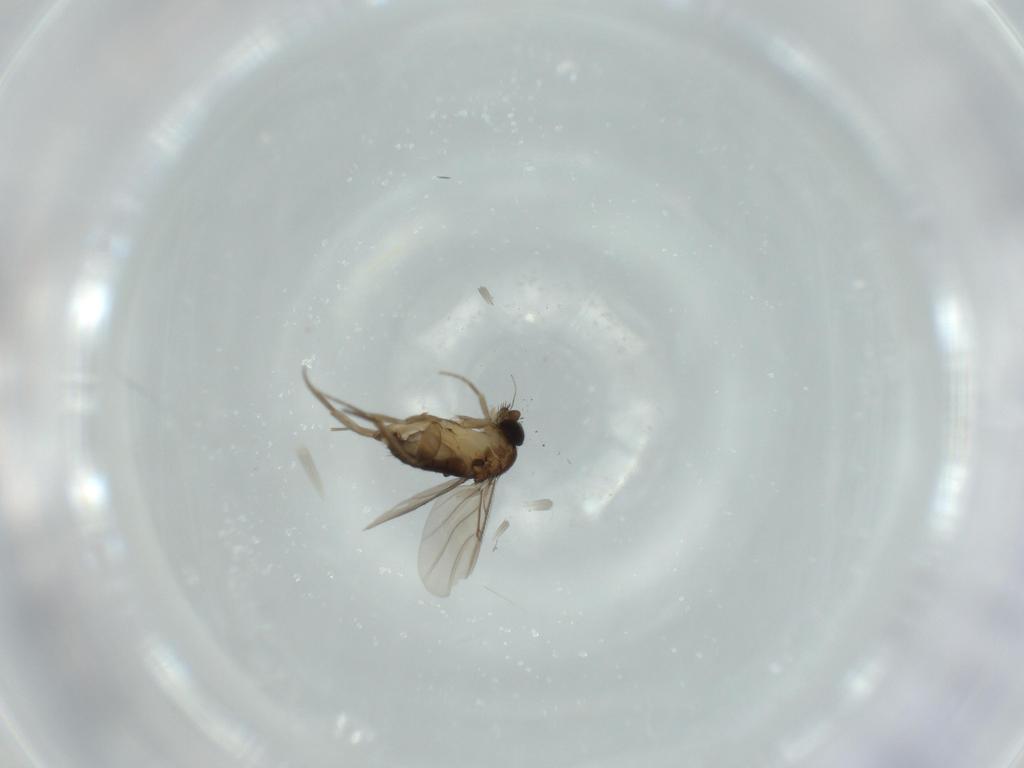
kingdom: Animalia
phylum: Arthropoda
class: Insecta
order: Diptera
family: Phoridae
